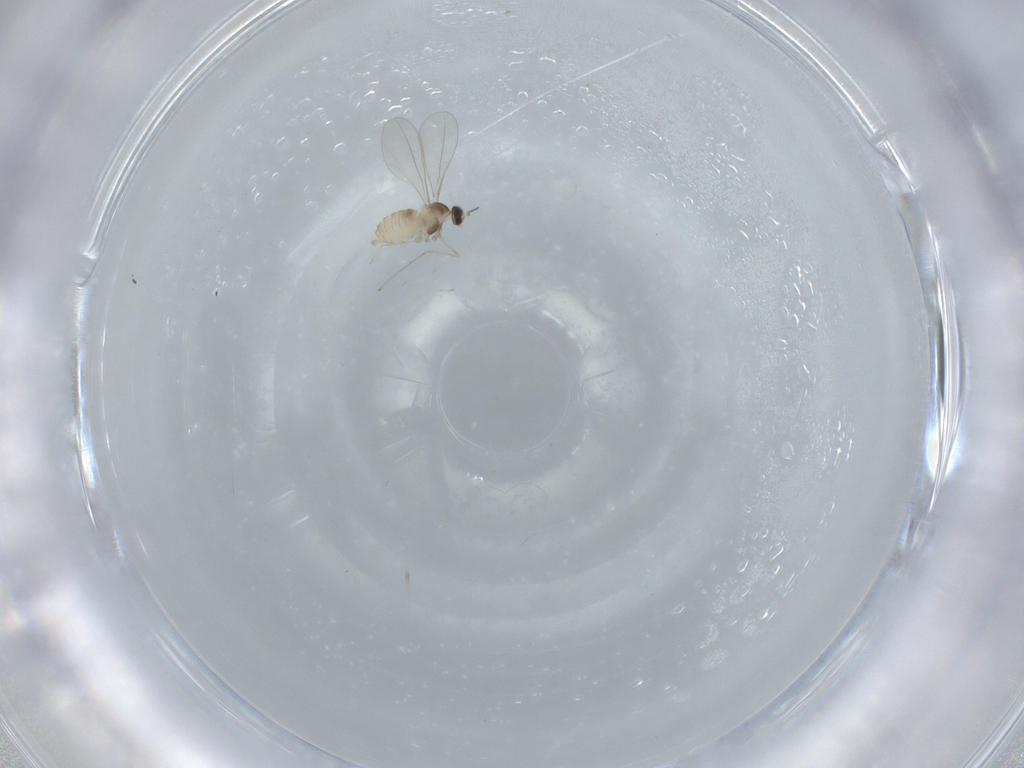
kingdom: Animalia
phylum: Arthropoda
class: Insecta
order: Diptera
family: Cecidomyiidae
